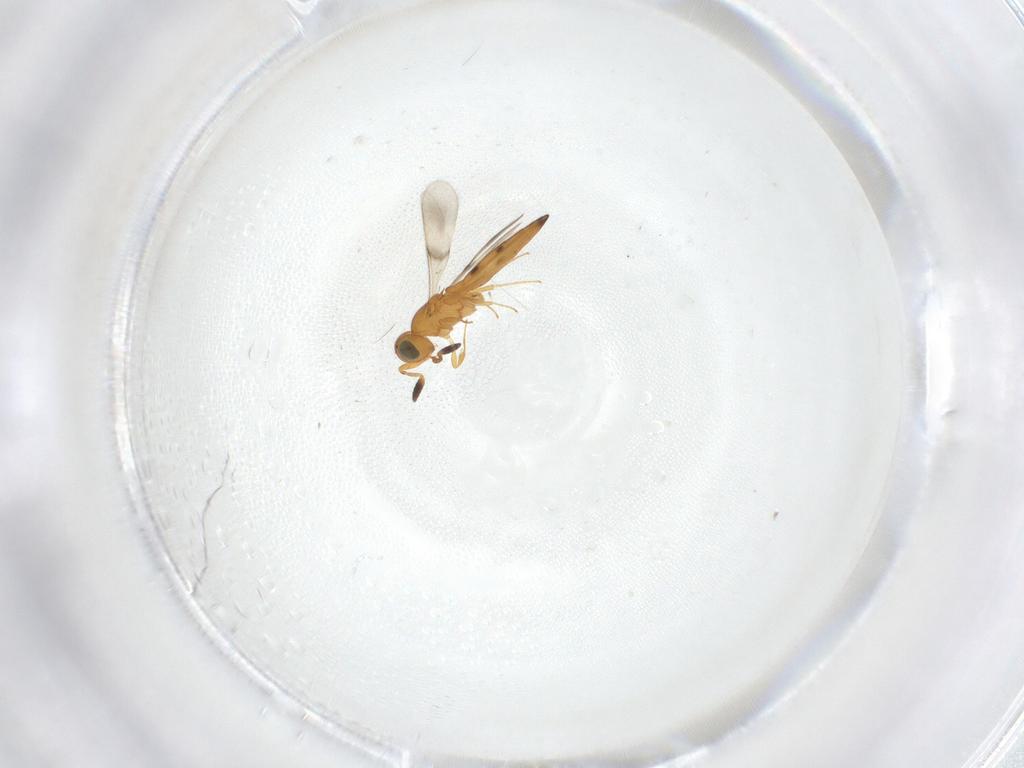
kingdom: Animalia
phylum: Arthropoda
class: Insecta
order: Hymenoptera
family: Scelionidae
